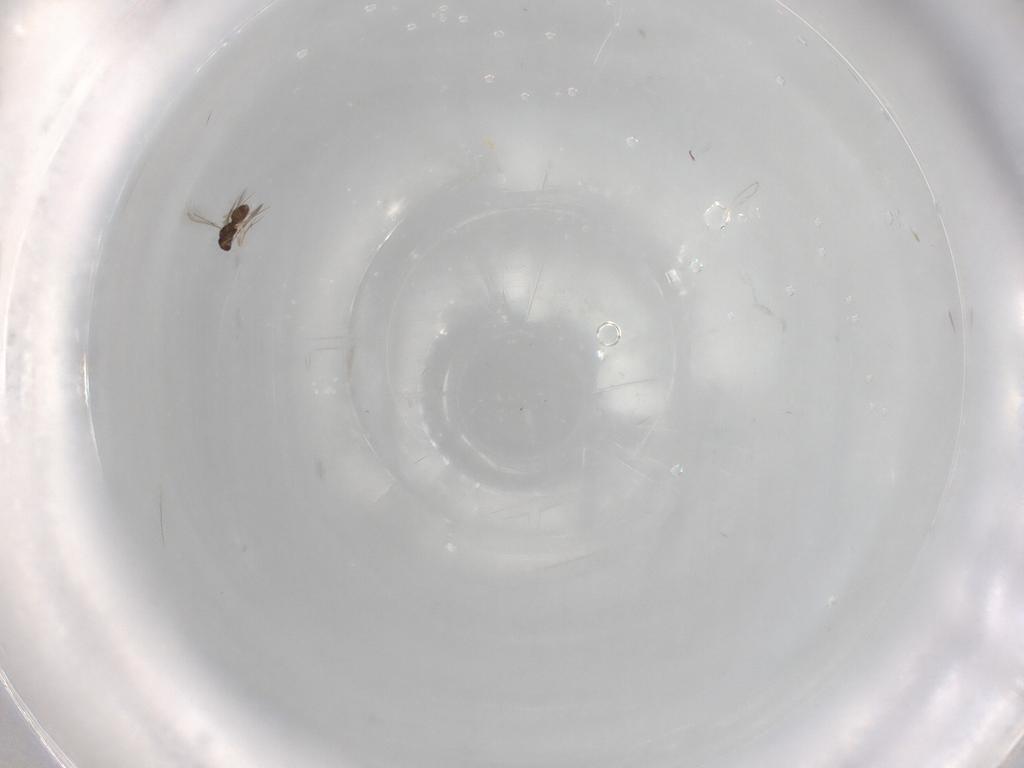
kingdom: Animalia
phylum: Arthropoda
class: Insecta
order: Hymenoptera
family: Mymaridae
